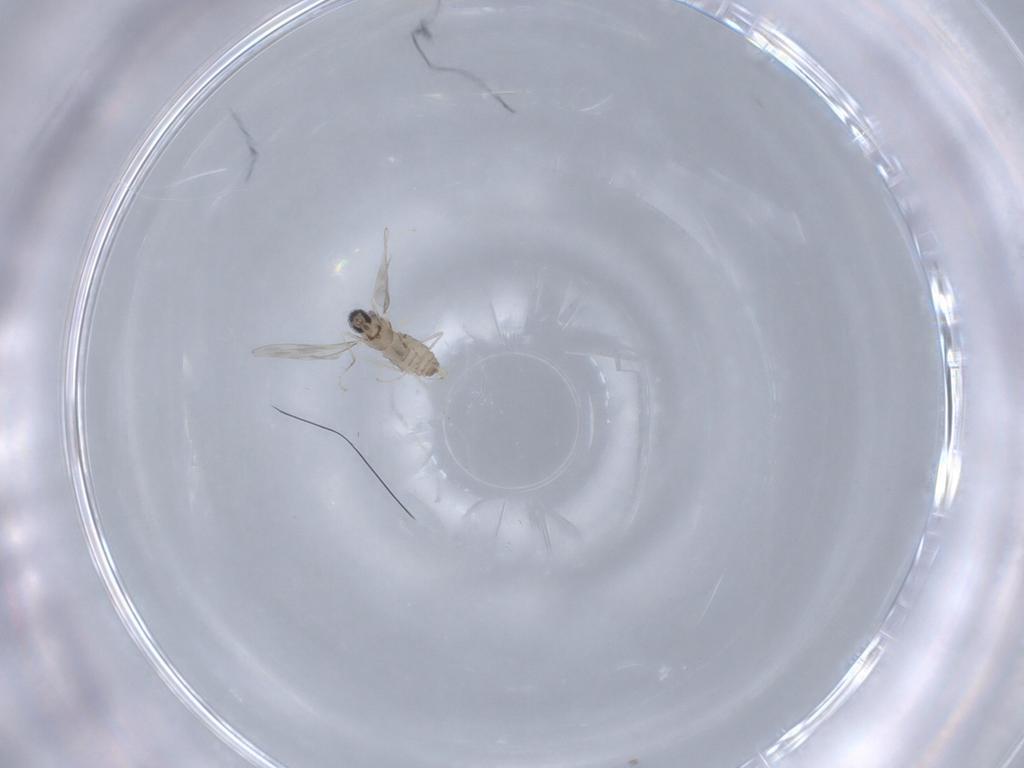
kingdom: Animalia
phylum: Arthropoda
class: Insecta
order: Diptera
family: Cecidomyiidae
